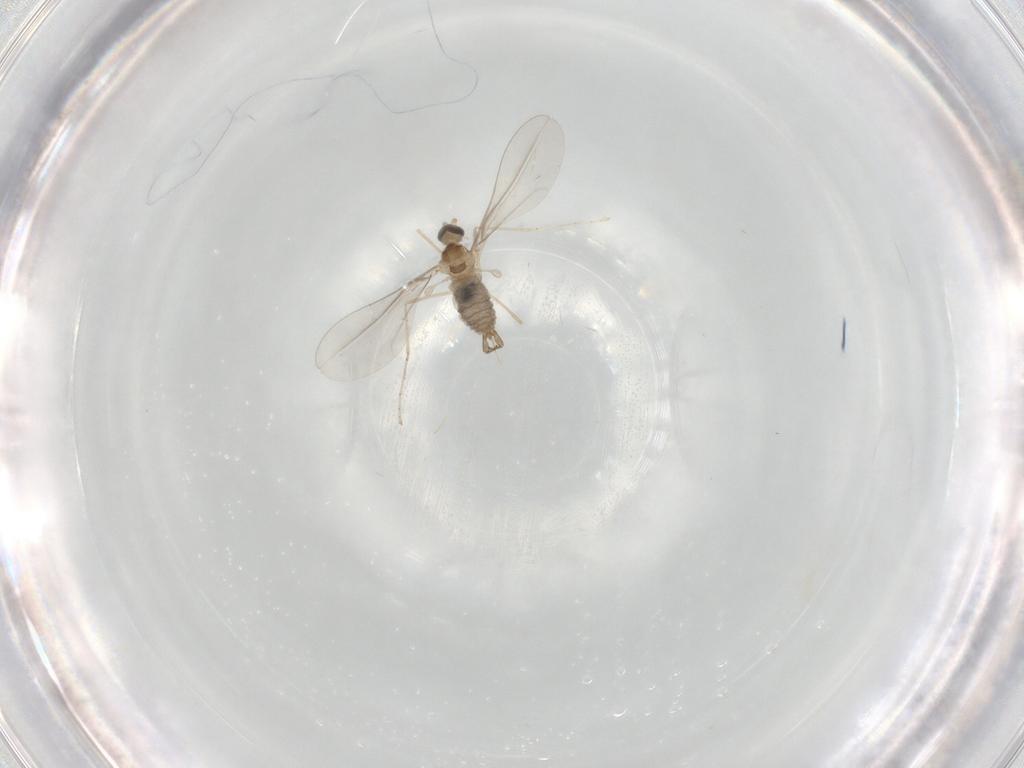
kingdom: Animalia
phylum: Arthropoda
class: Insecta
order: Diptera
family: Cecidomyiidae
